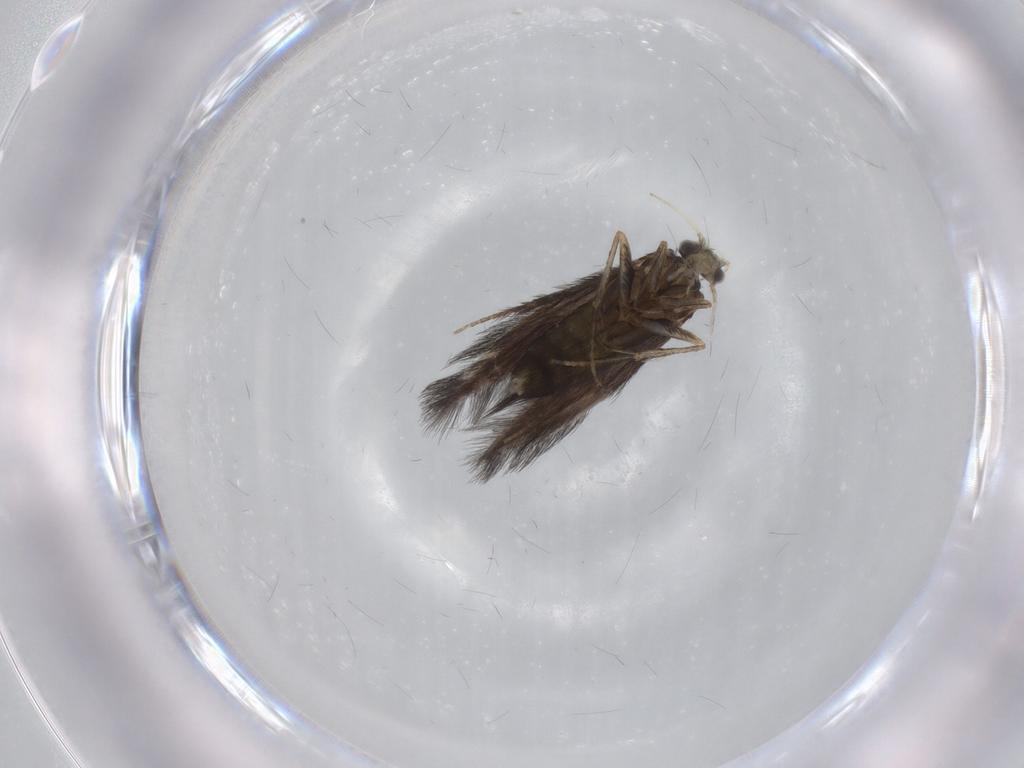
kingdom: Animalia
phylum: Arthropoda
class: Insecta
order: Trichoptera
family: Hydroptilidae
